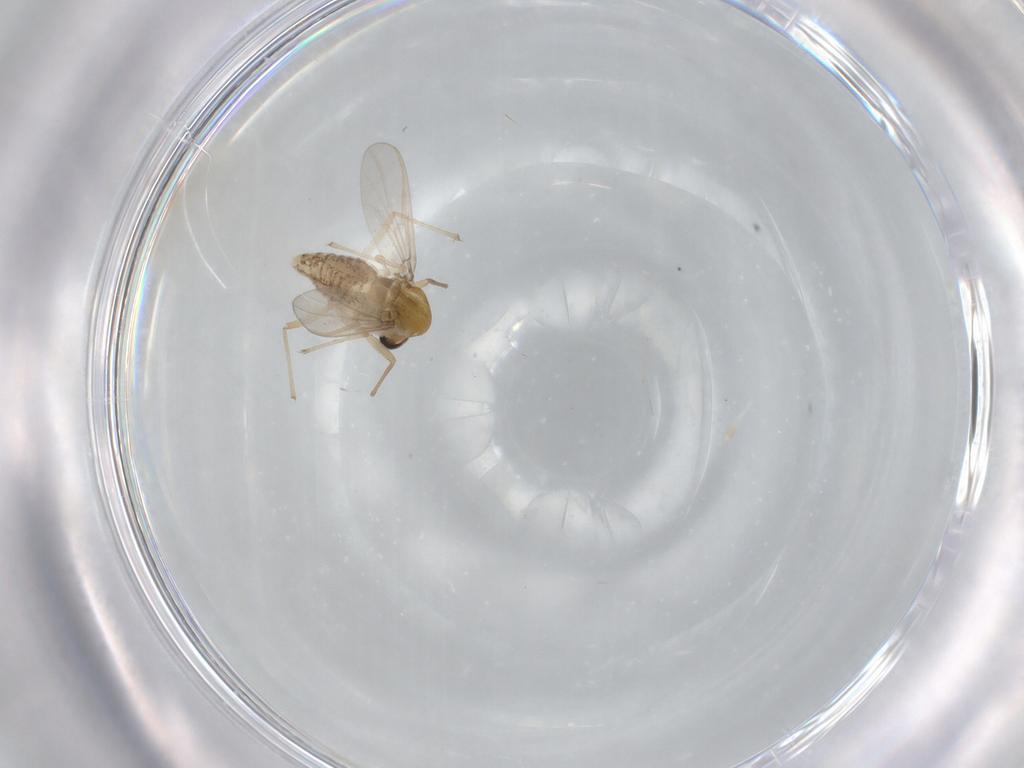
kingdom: Animalia
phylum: Arthropoda
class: Insecta
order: Diptera
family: Chironomidae
